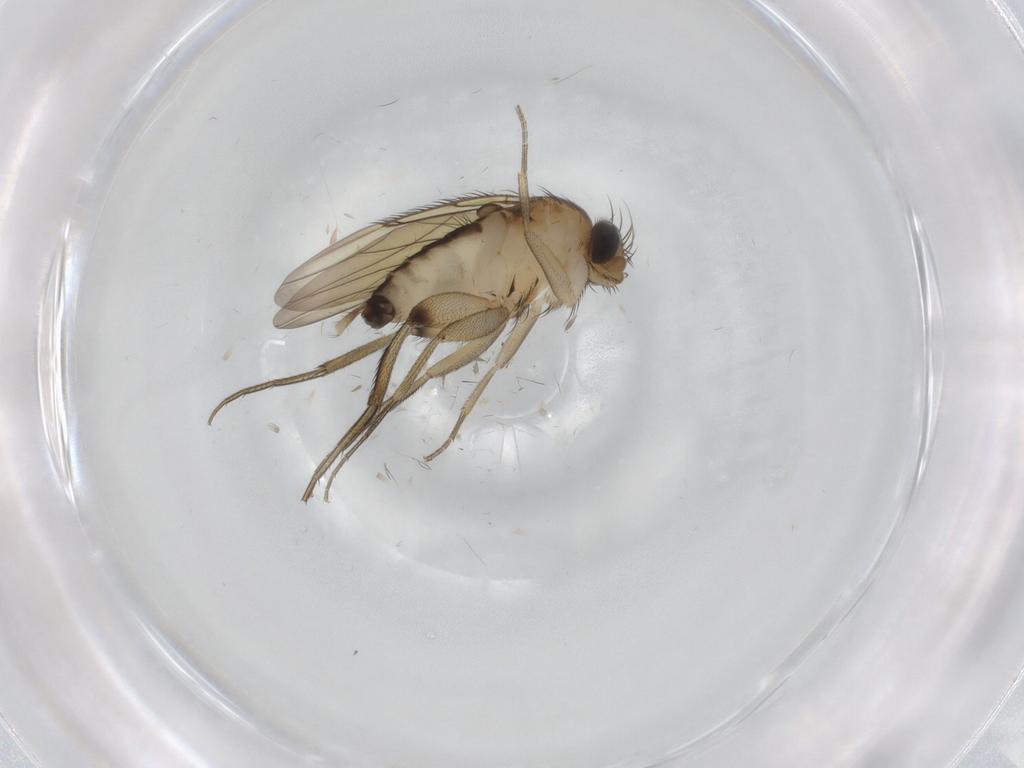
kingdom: Animalia
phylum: Arthropoda
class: Insecta
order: Diptera
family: Phoridae
